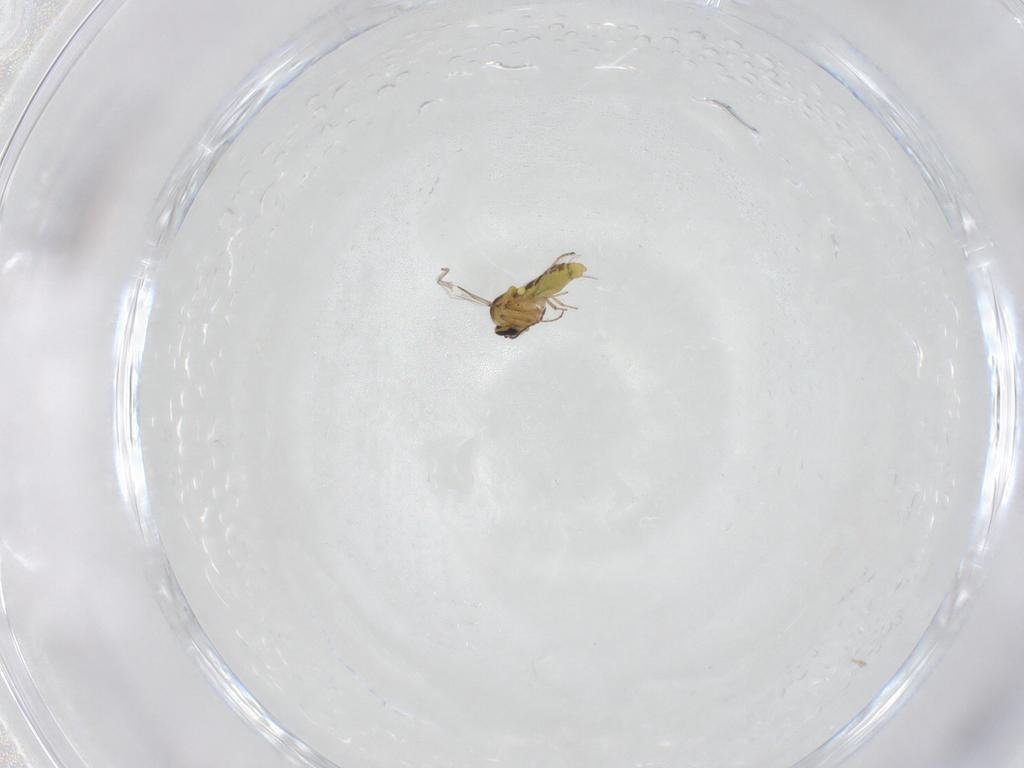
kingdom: Animalia
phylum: Arthropoda
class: Insecta
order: Diptera
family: Keroplatidae
